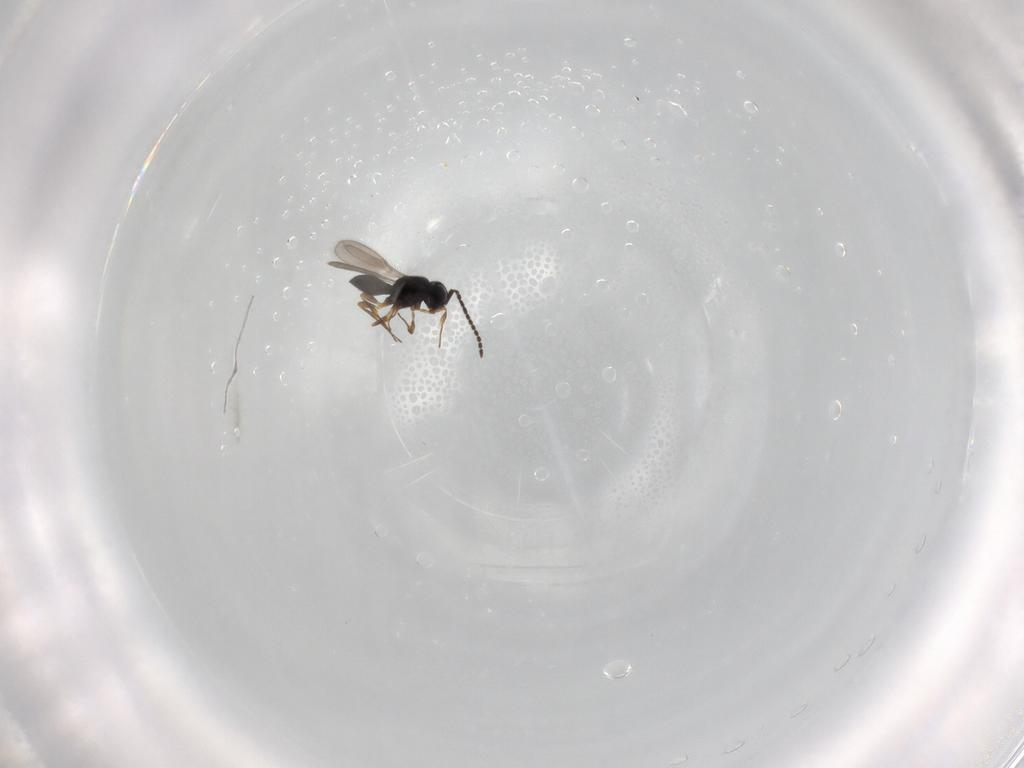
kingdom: Animalia
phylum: Arthropoda
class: Insecta
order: Hymenoptera
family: Scelionidae
